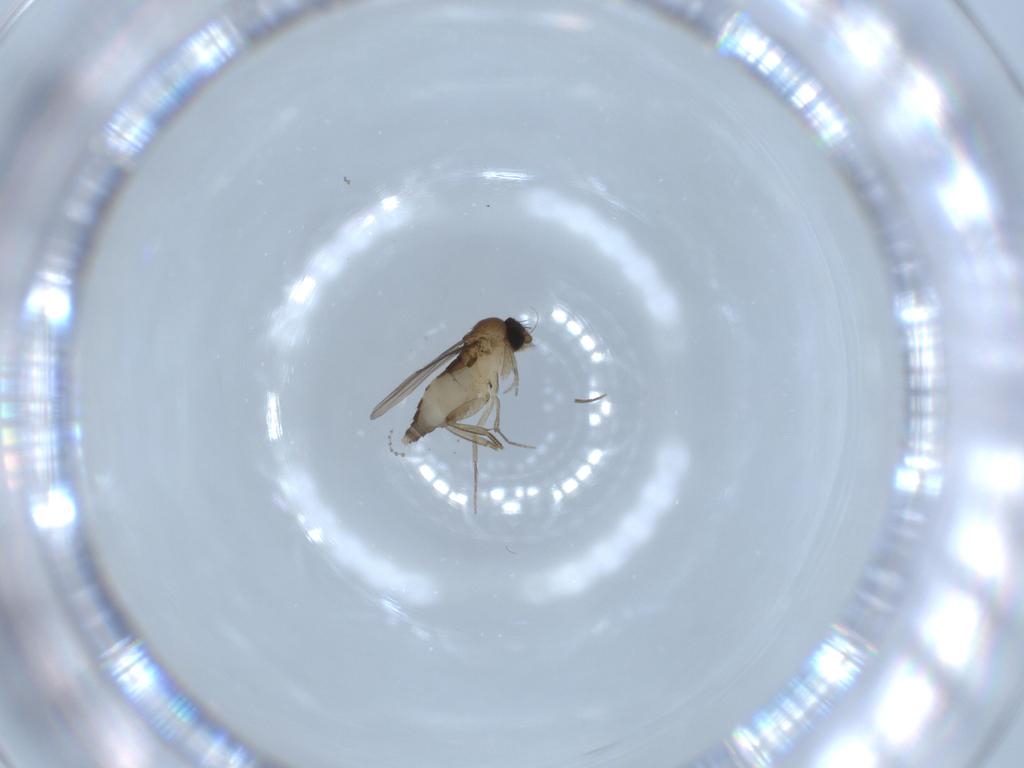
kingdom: Animalia
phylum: Arthropoda
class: Insecta
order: Diptera
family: Phoridae
